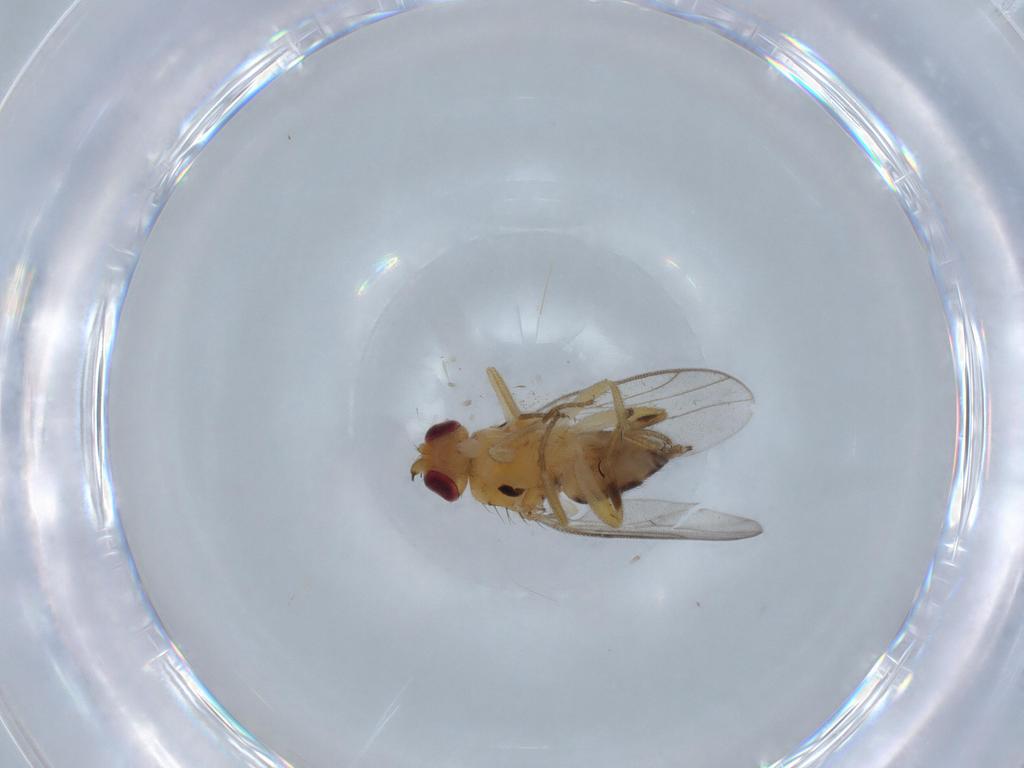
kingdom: Animalia
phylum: Arthropoda
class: Insecta
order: Diptera
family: Chloropidae
